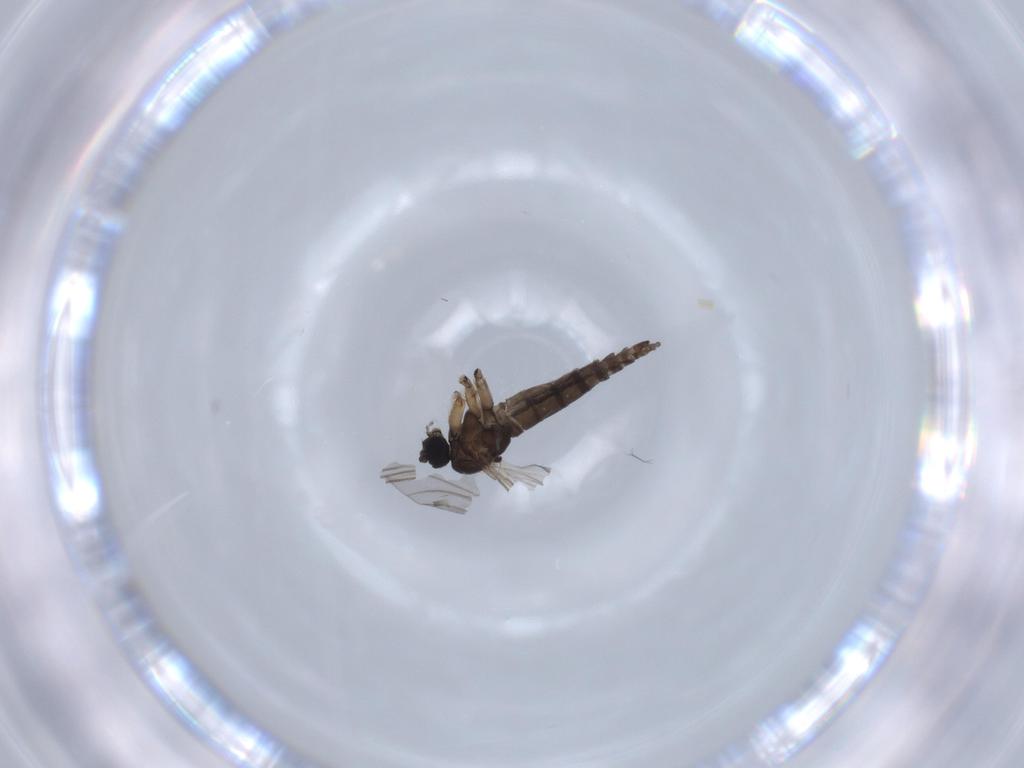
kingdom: Animalia
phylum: Arthropoda
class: Insecta
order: Diptera
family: Sciaridae
